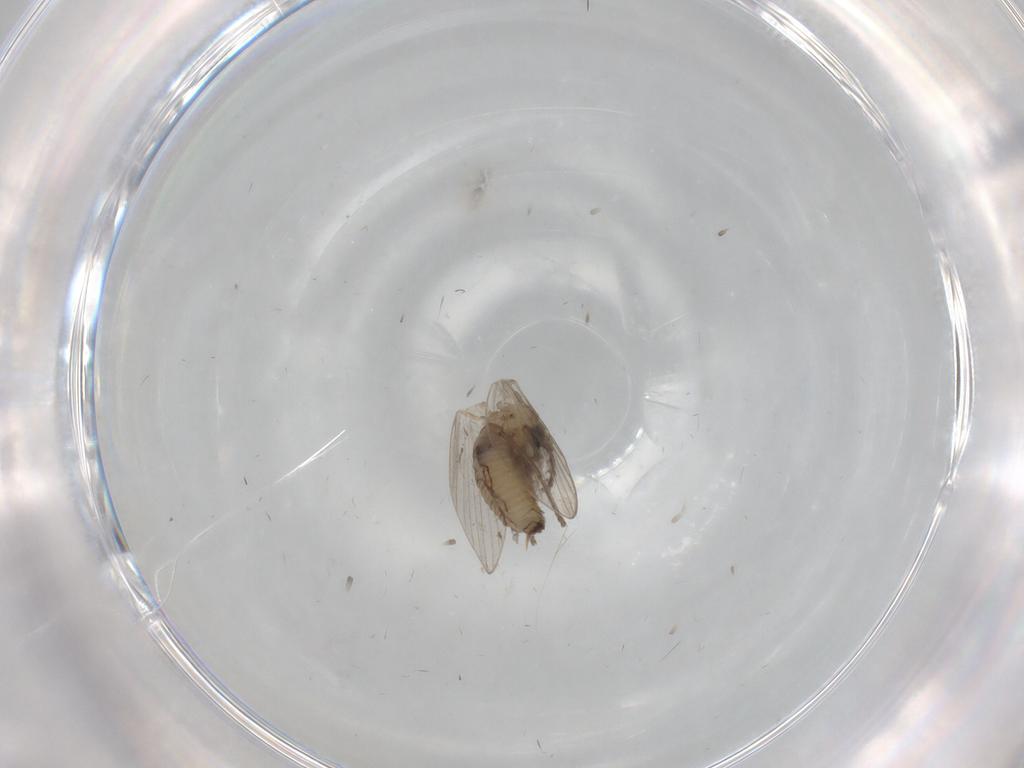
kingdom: Animalia
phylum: Arthropoda
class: Insecta
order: Diptera
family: Psychodidae
